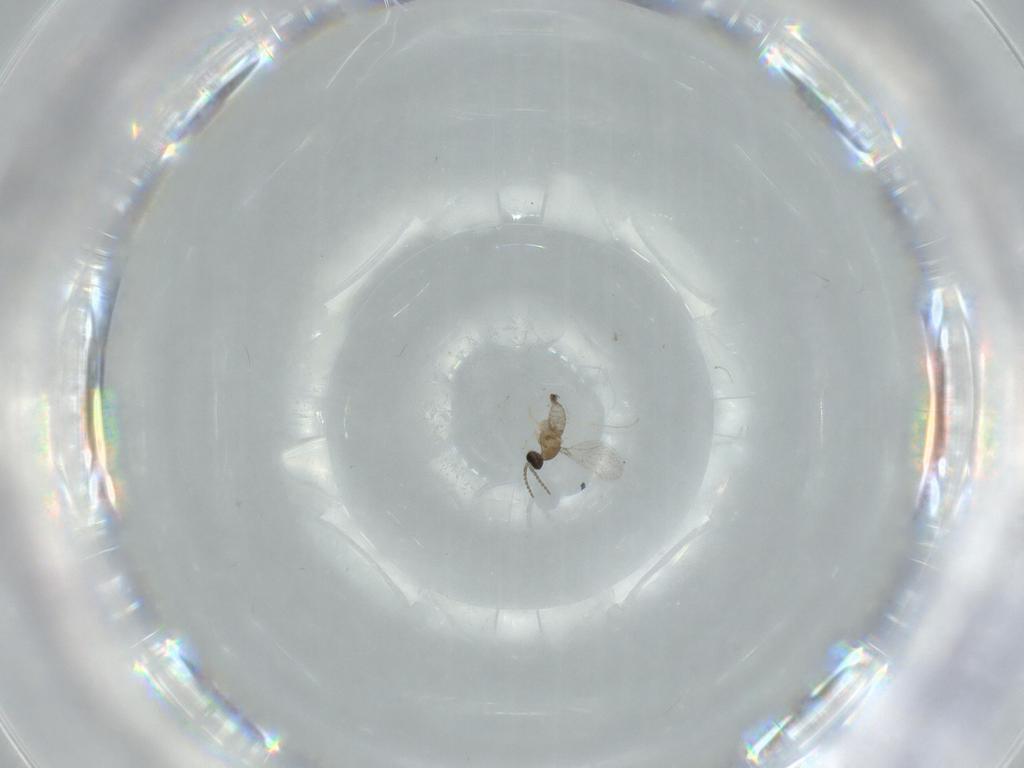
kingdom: Animalia
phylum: Arthropoda
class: Insecta
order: Diptera
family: Cecidomyiidae
